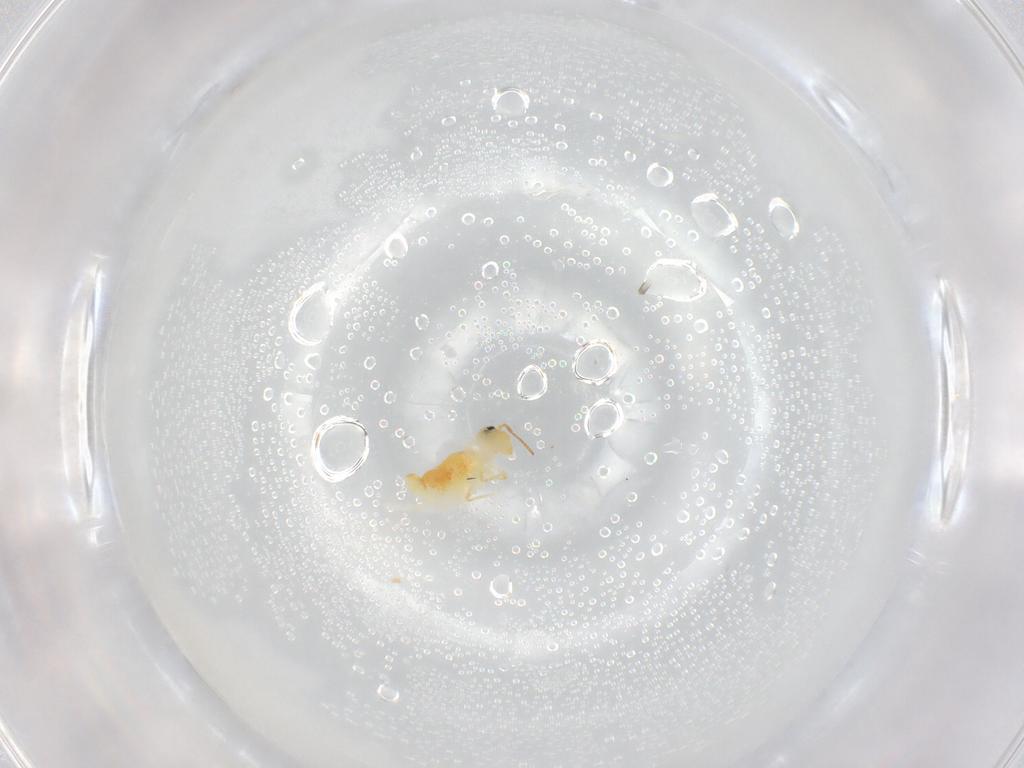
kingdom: Animalia
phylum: Arthropoda
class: Collembola
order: Symphypleona
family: Bourletiellidae
